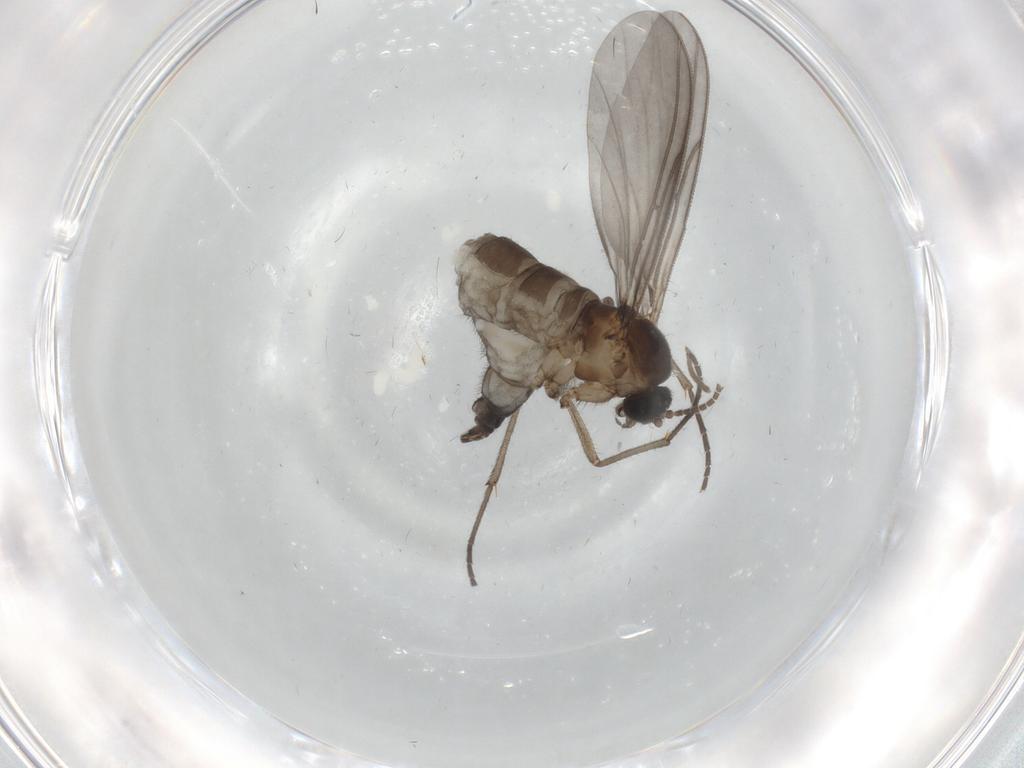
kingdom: Animalia
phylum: Arthropoda
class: Insecta
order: Diptera
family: Cecidomyiidae
